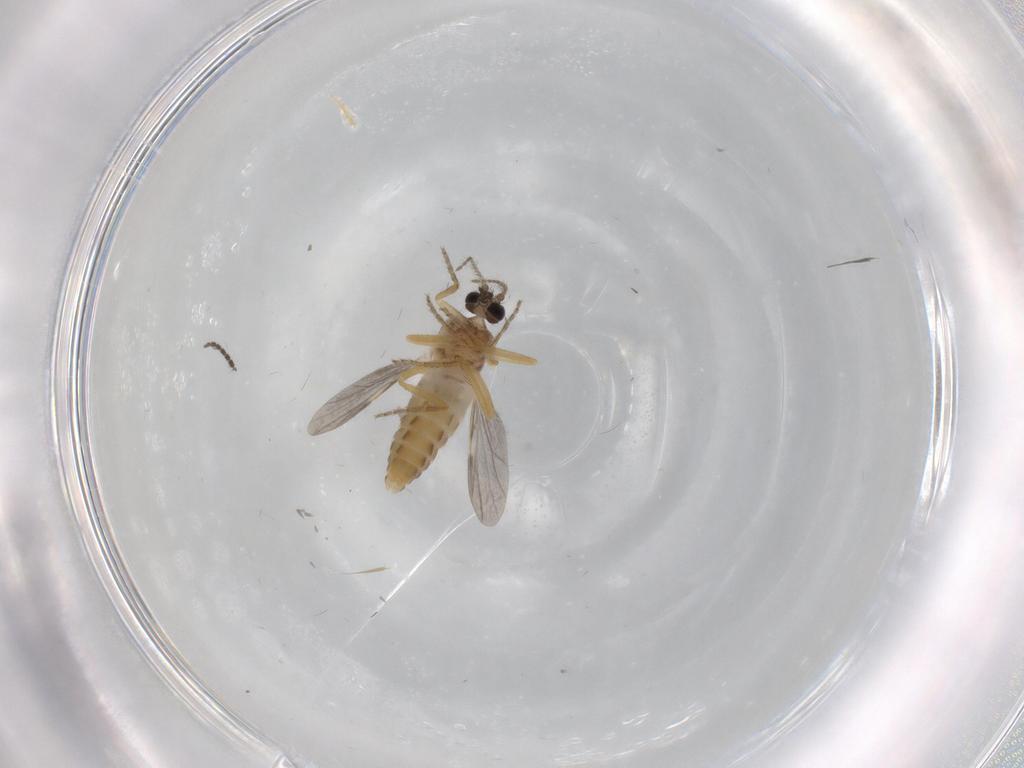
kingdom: Animalia
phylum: Arthropoda
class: Insecta
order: Diptera
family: Ceratopogonidae
